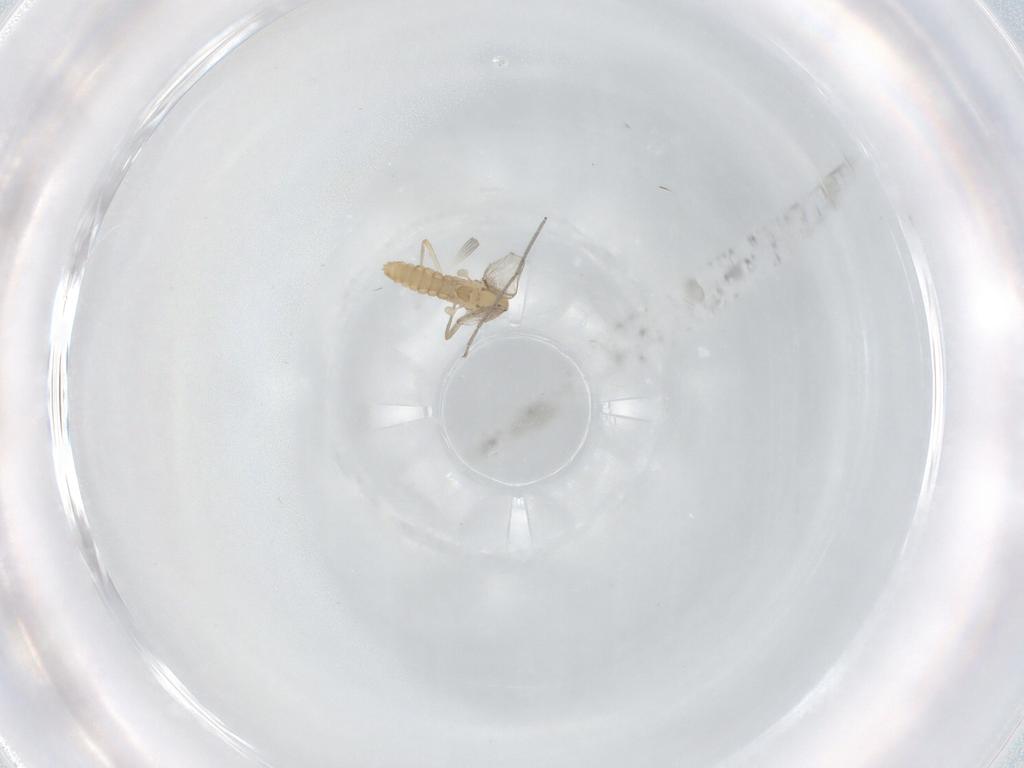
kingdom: Animalia
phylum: Arthropoda
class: Insecta
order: Diptera
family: Chironomidae
